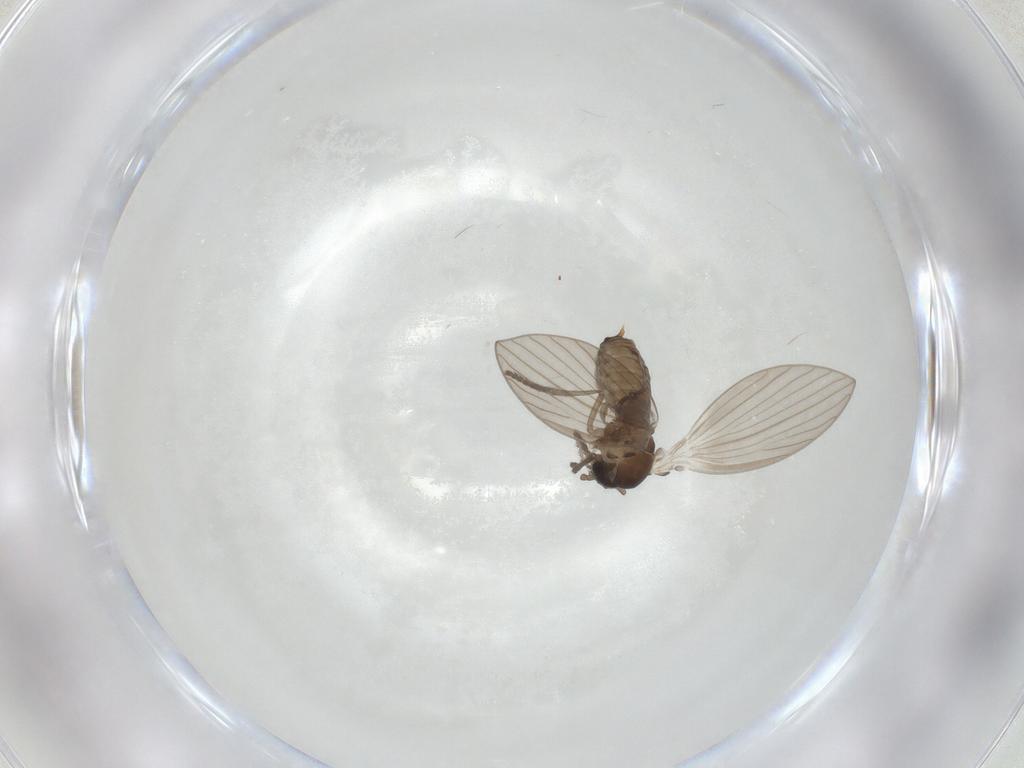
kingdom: Animalia
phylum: Arthropoda
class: Insecta
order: Diptera
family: Psychodidae
